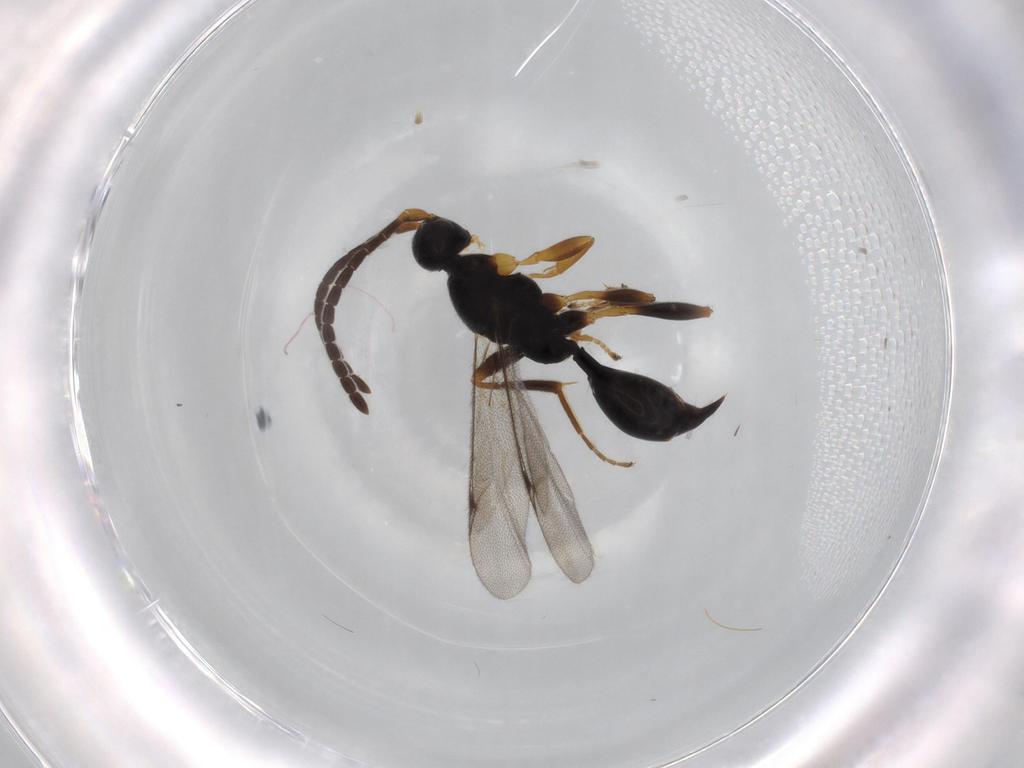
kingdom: Animalia
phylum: Arthropoda
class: Insecta
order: Hymenoptera
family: Proctotrupidae
